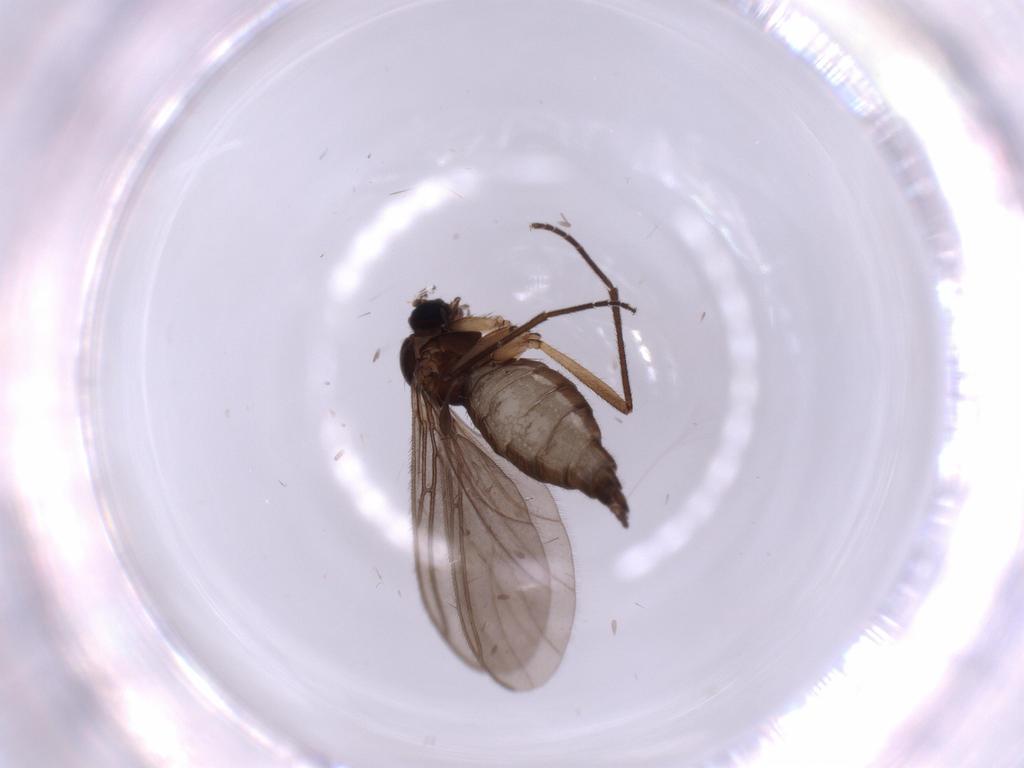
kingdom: Animalia
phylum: Arthropoda
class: Insecta
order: Diptera
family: Sciaridae
